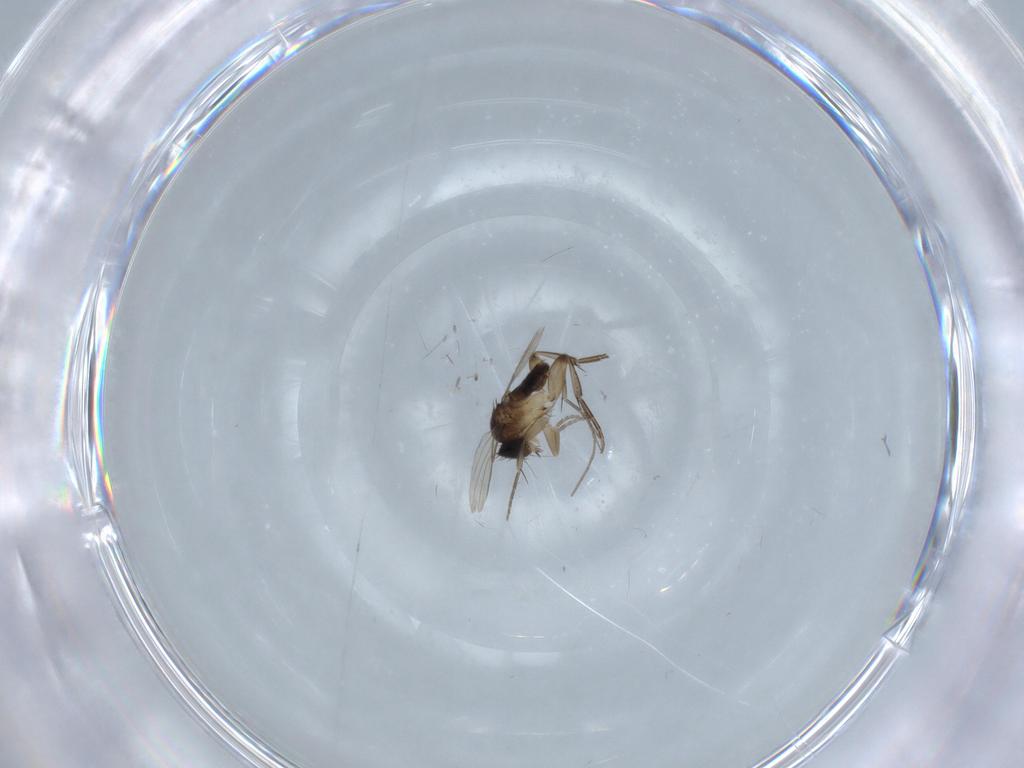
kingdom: Animalia
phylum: Arthropoda
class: Insecta
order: Diptera
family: Phoridae
